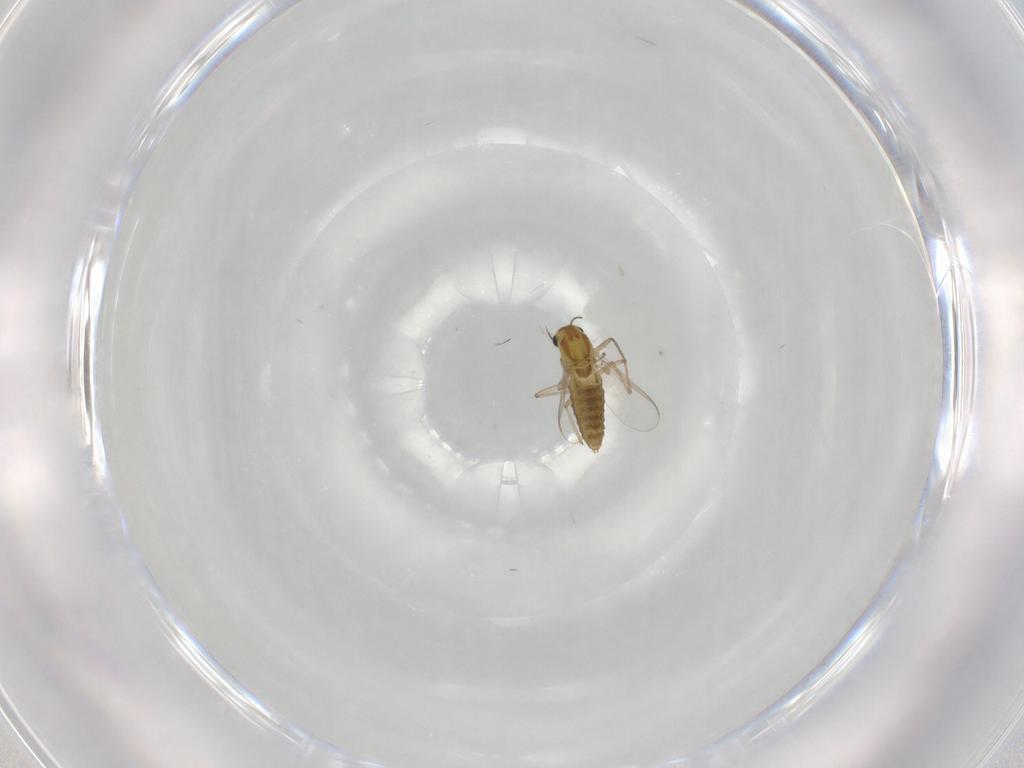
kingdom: Animalia
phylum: Arthropoda
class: Insecta
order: Diptera
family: Chironomidae
